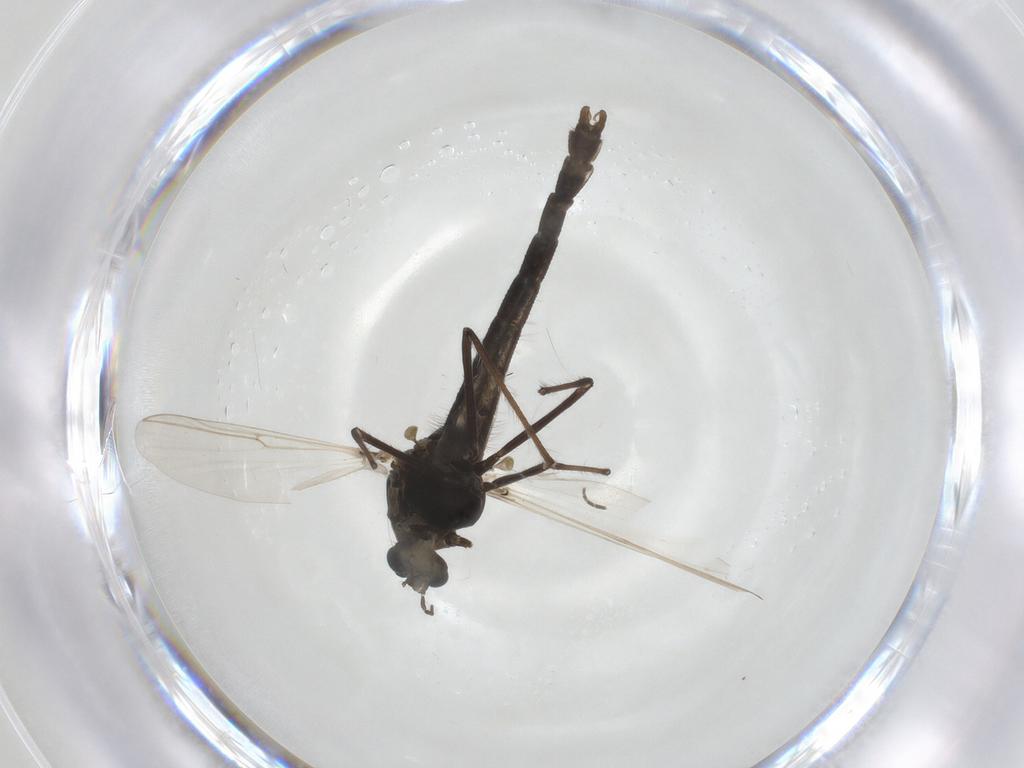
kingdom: Animalia
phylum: Arthropoda
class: Insecta
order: Diptera
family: Chironomidae
